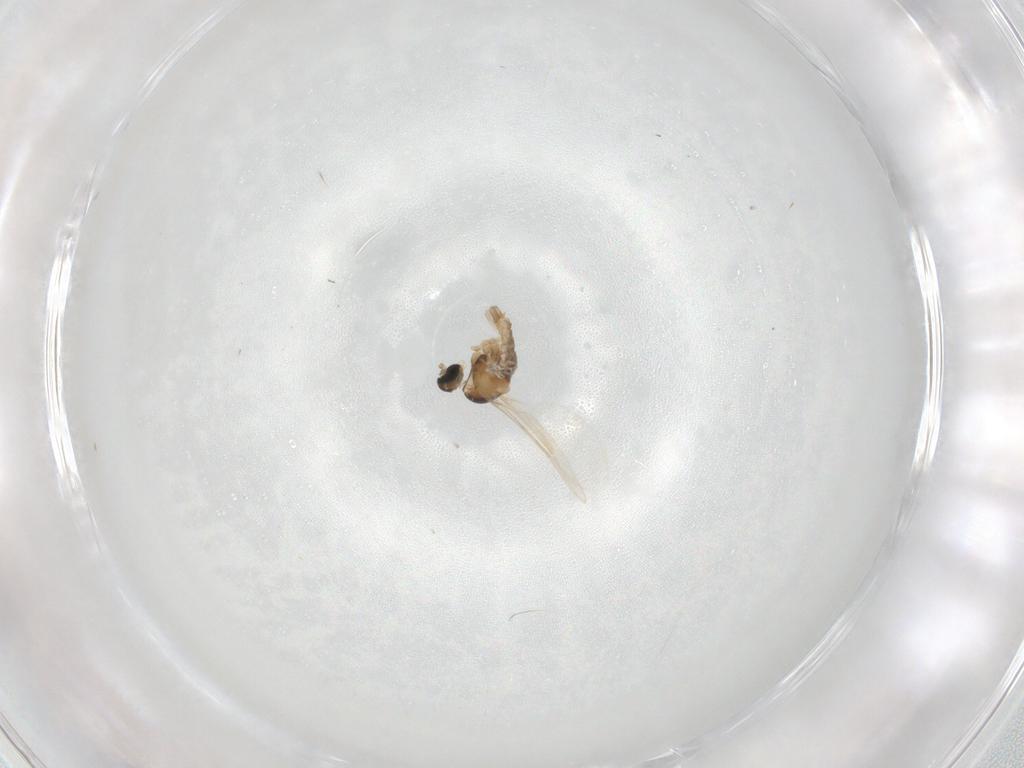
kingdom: Animalia
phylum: Arthropoda
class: Insecta
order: Diptera
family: Cecidomyiidae
